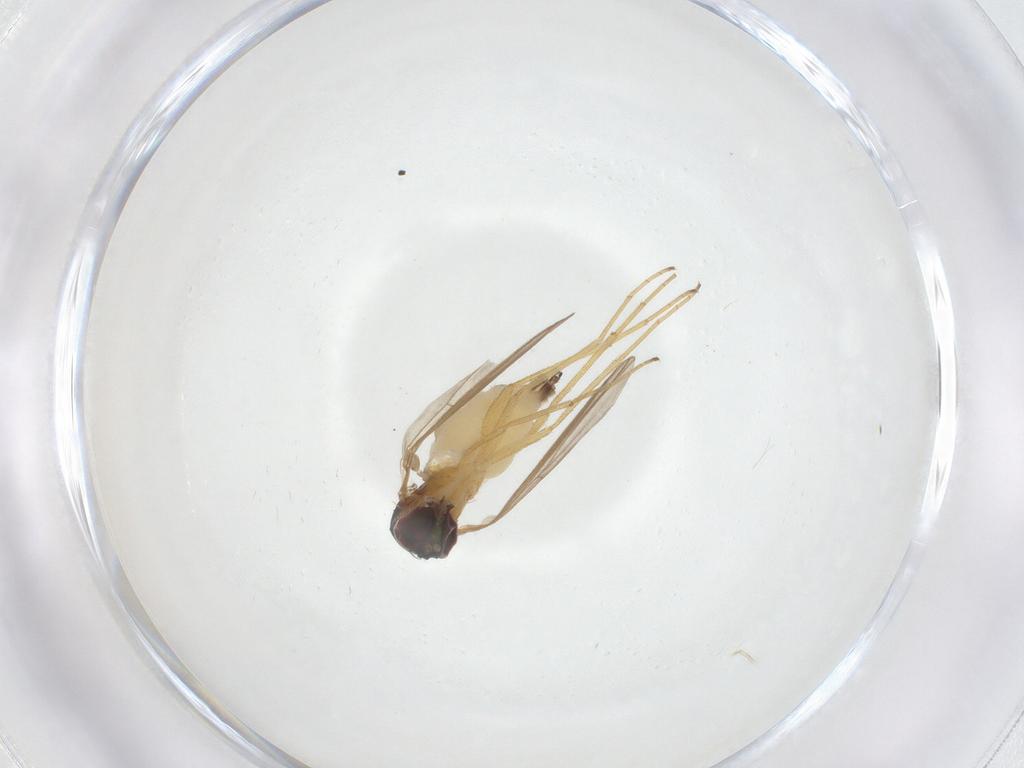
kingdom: Animalia
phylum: Arthropoda
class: Insecta
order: Diptera
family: Dolichopodidae
